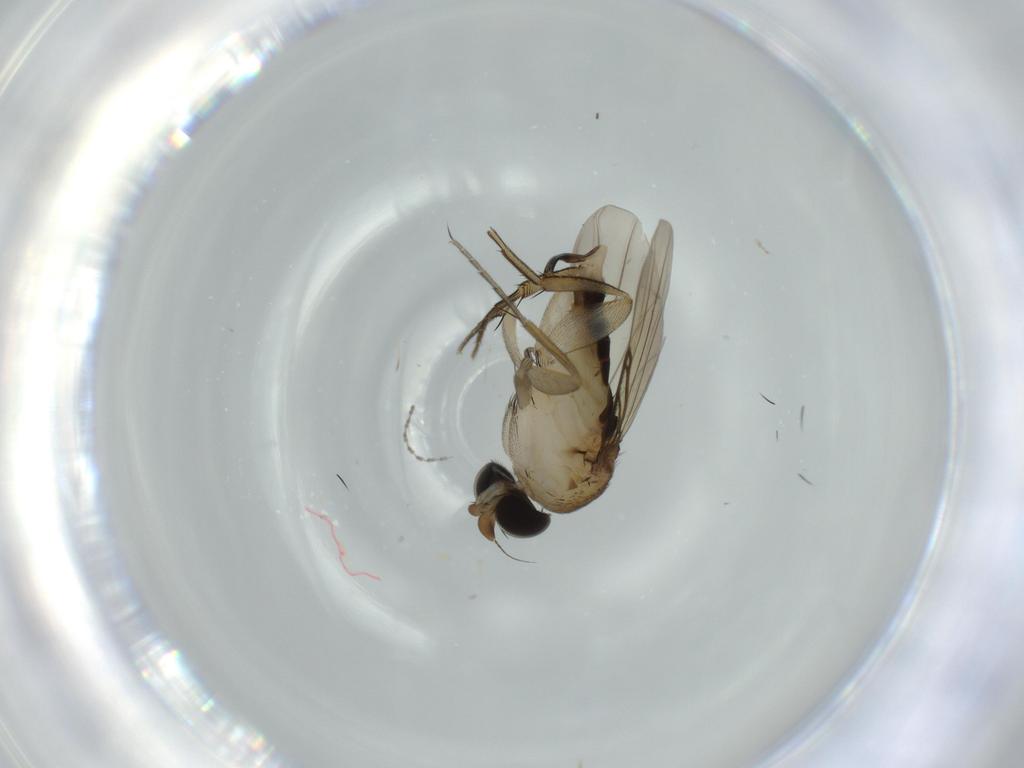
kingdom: Animalia
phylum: Arthropoda
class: Insecta
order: Diptera
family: Phoridae
